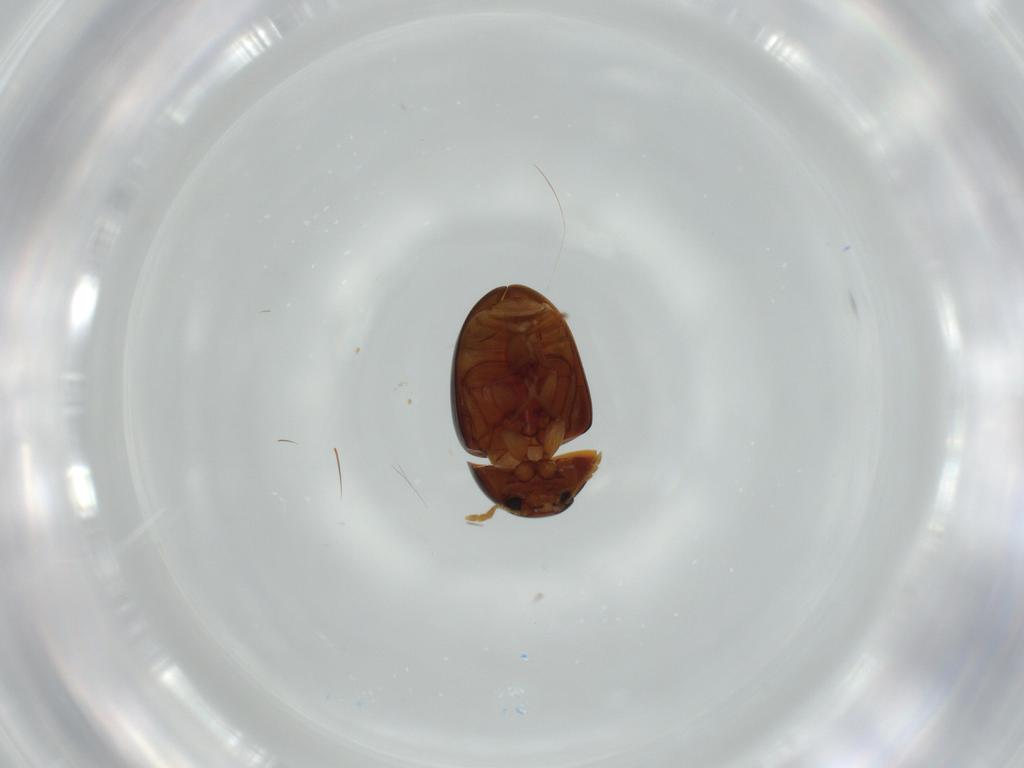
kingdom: Animalia
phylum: Arthropoda
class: Insecta
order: Coleoptera
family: Phalacridae
